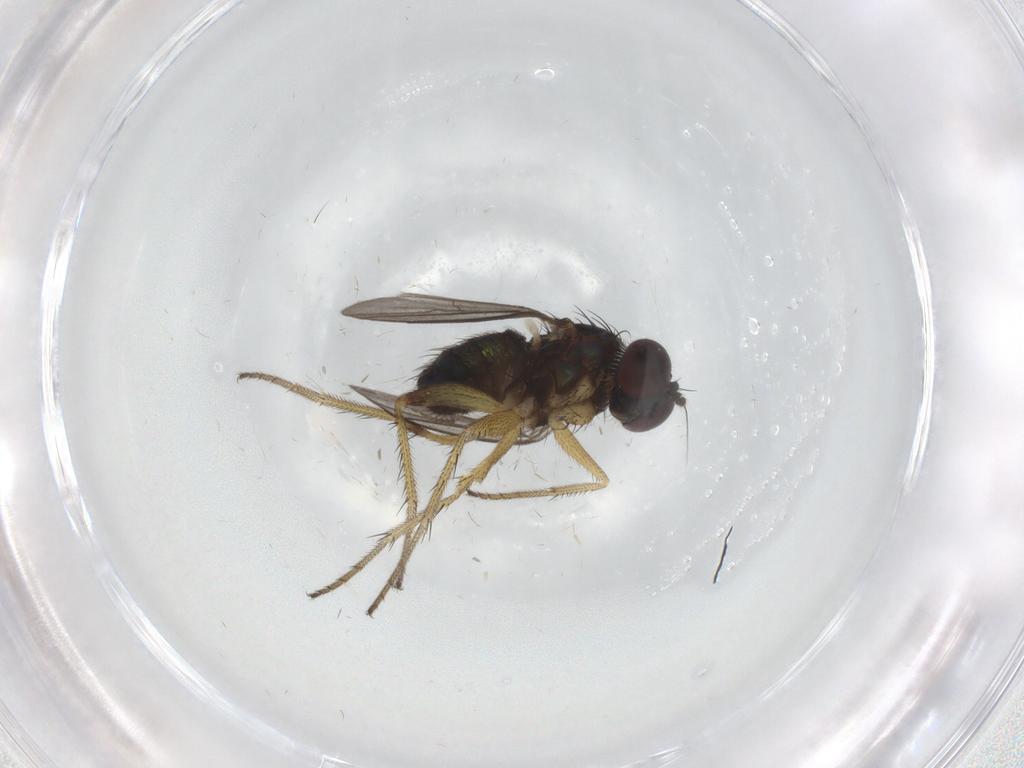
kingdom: Animalia
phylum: Arthropoda
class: Insecta
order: Diptera
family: Dolichopodidae
